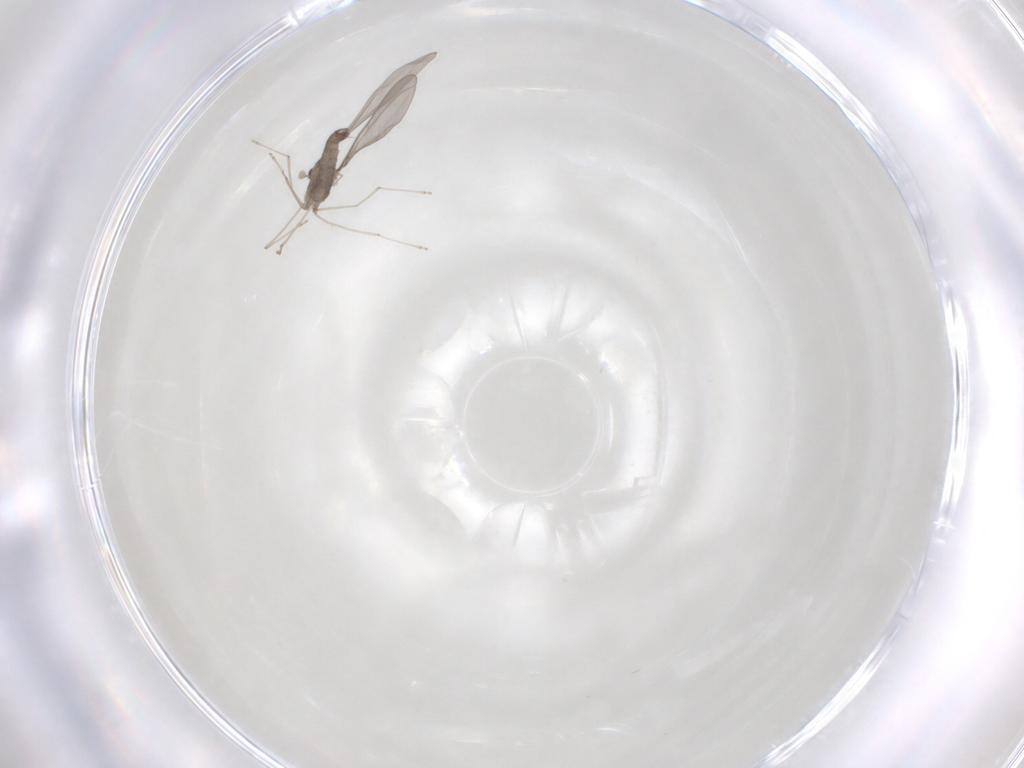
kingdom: Animalia
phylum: Arthropoda
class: Insecta
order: Diptera
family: Cecidomyiidae
